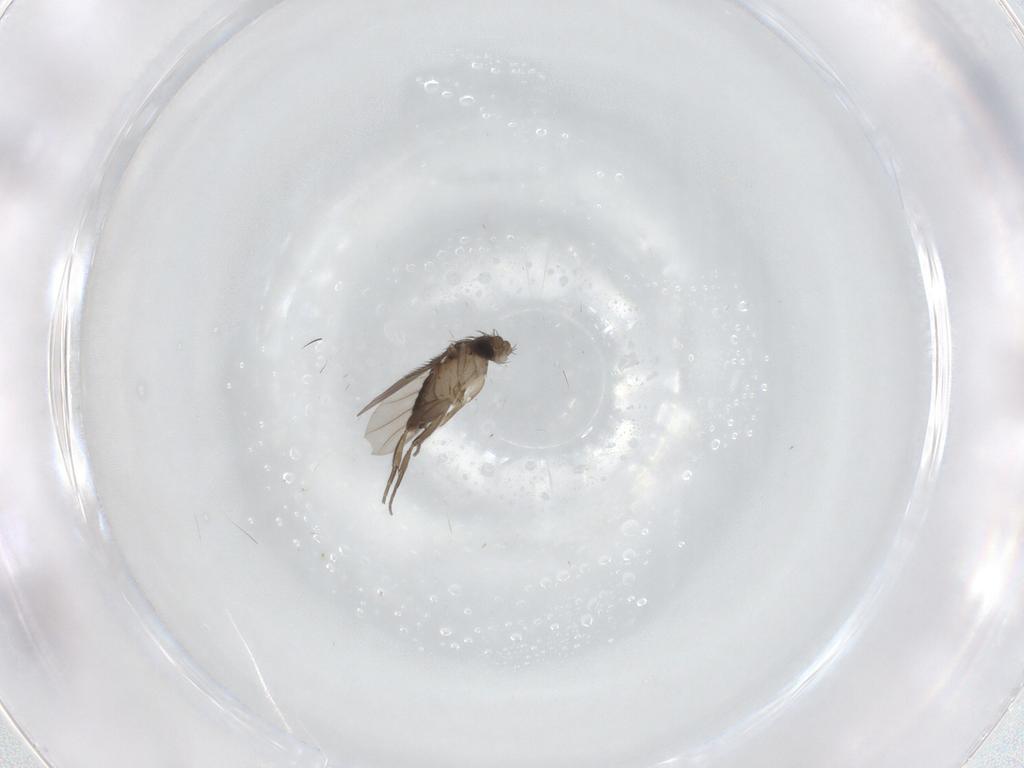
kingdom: Animalia
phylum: Arthropoda
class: Insecta
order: Diptera
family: Phoridae
